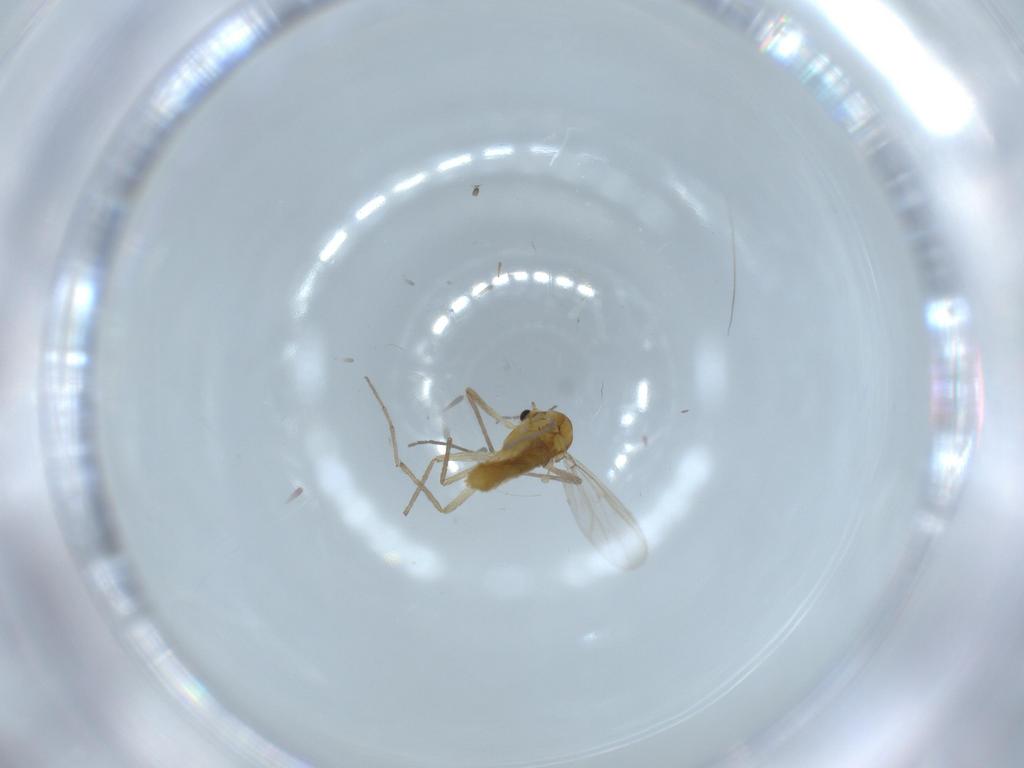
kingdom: Animalia
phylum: Arthropoda
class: Insecta
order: Diptera
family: Chironomidae
